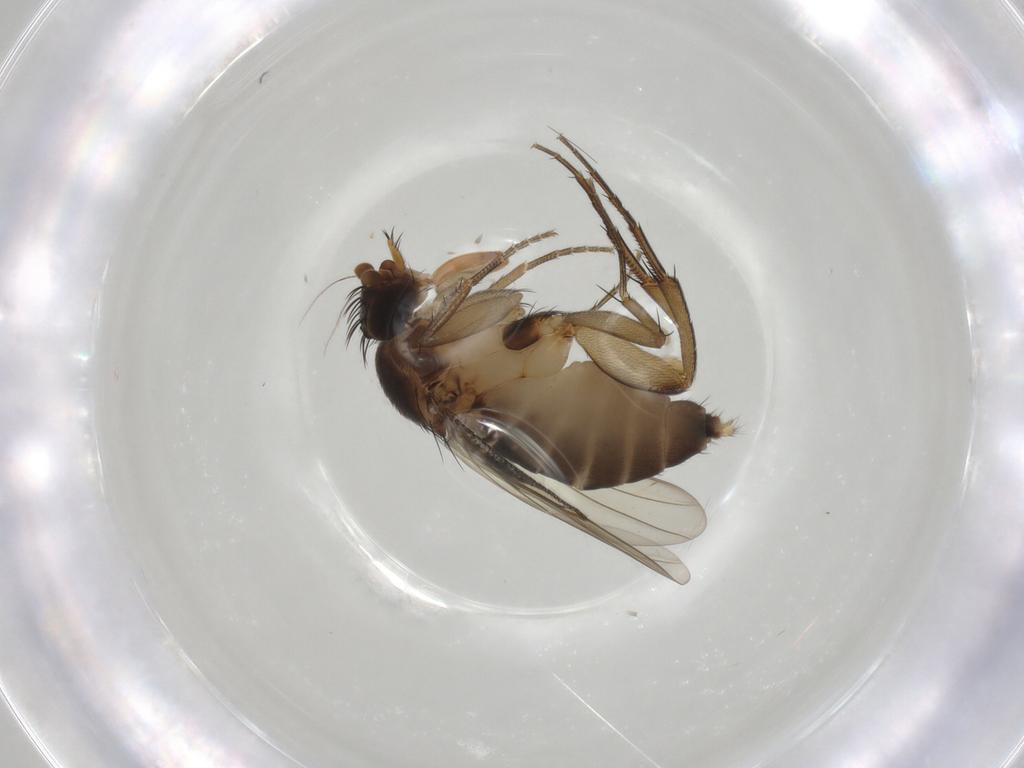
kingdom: Animalia
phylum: Arthropoda
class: Insecta
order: Diptera
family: Phoridae
